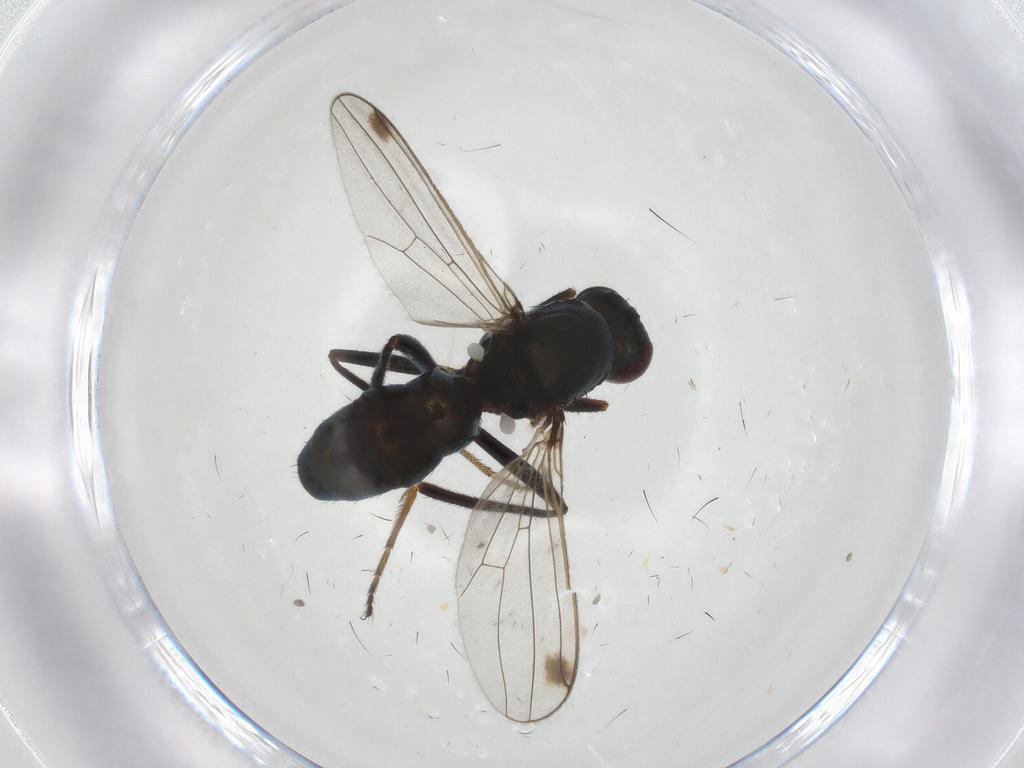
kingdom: Animalia
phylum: Arthropoda
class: Insecta
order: Diptera
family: Sepsidae
